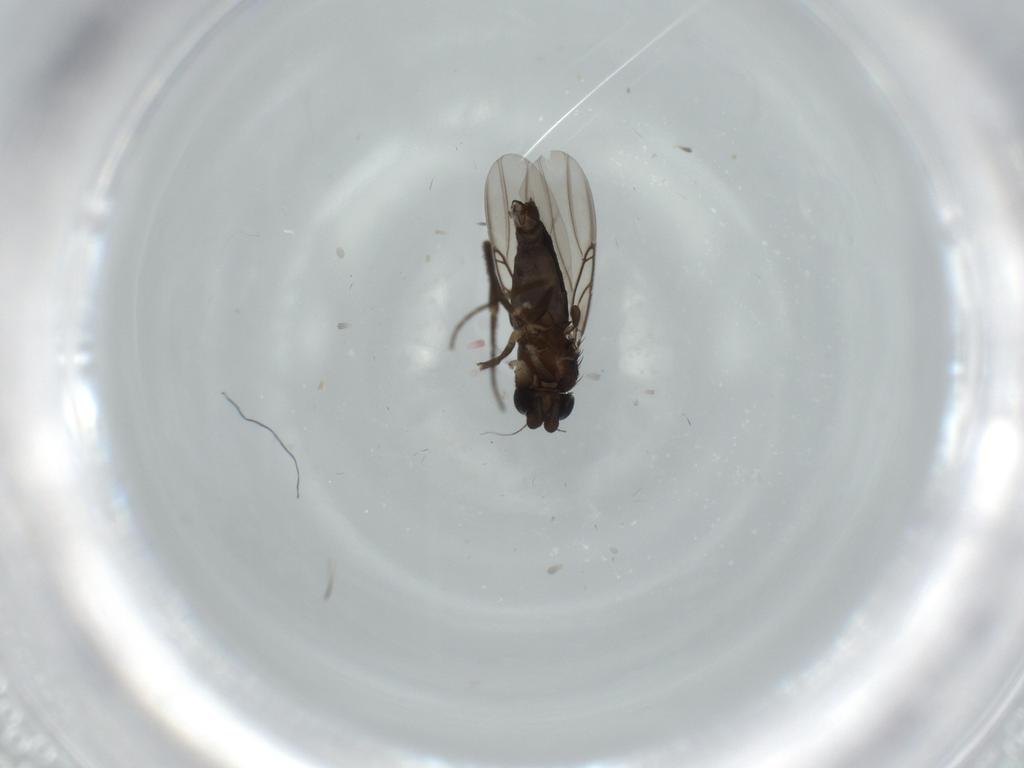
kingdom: Animalia
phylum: Arthropoda
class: Insecta
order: Diptera
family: Phoridae
